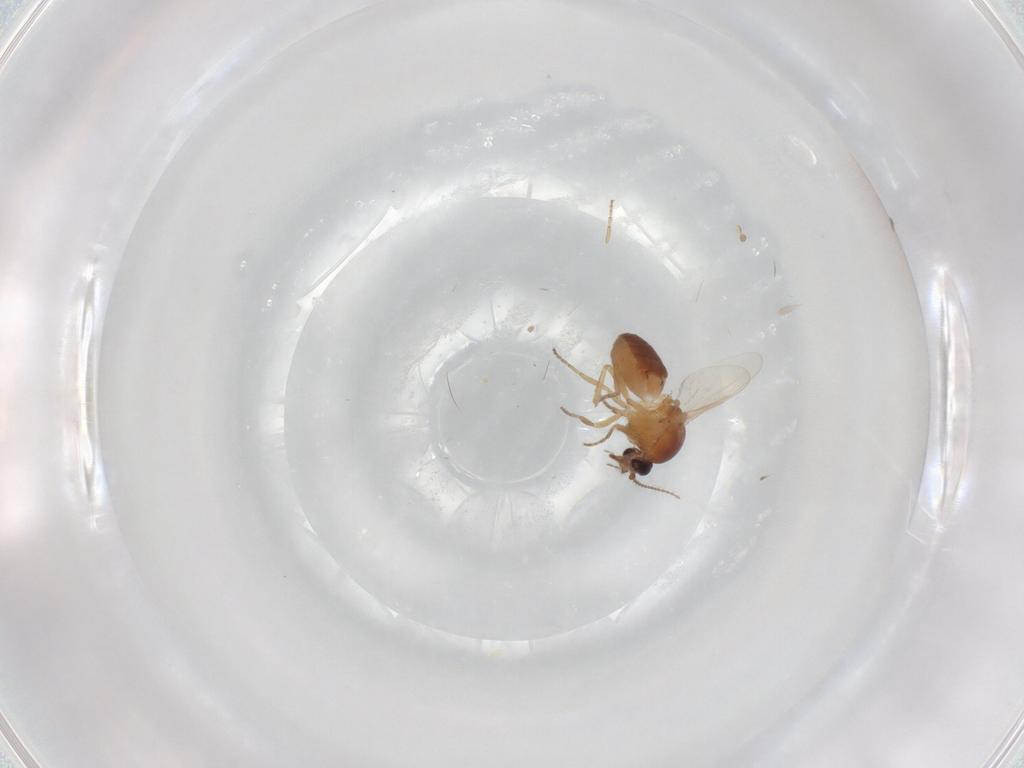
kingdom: Animalia
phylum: Arthropoda
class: Insecta
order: Diptera
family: Ceratopogonidae
